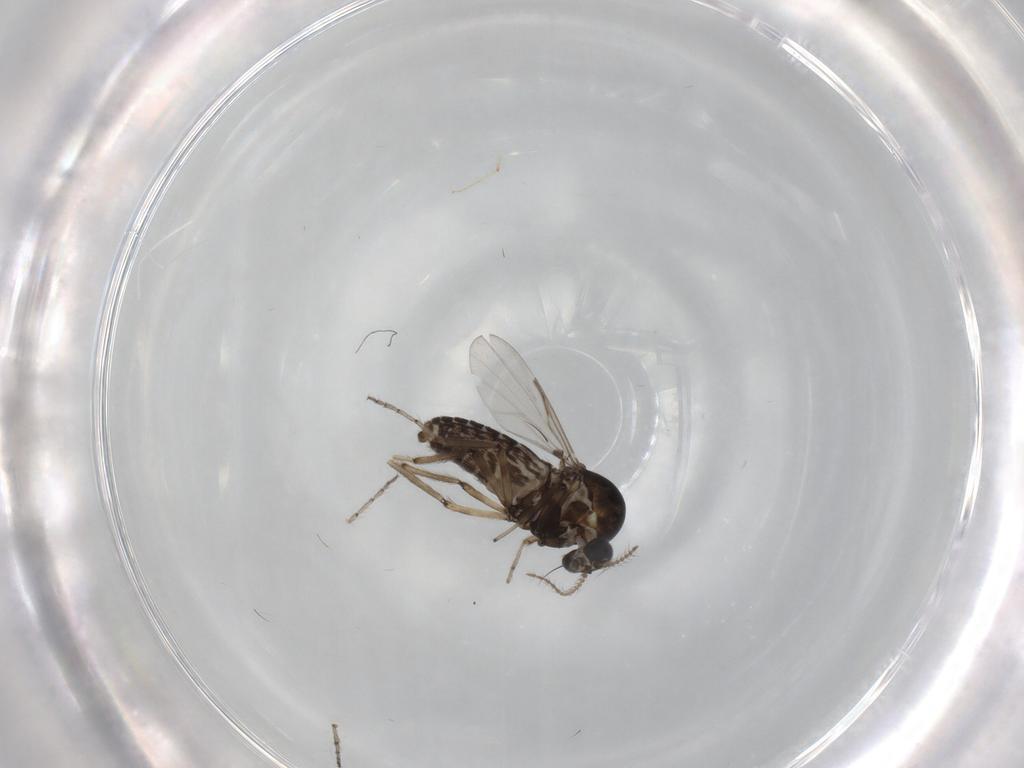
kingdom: Animalia
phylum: Arthropoda
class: Insecta
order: Diptera
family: Ceratopogonidae
